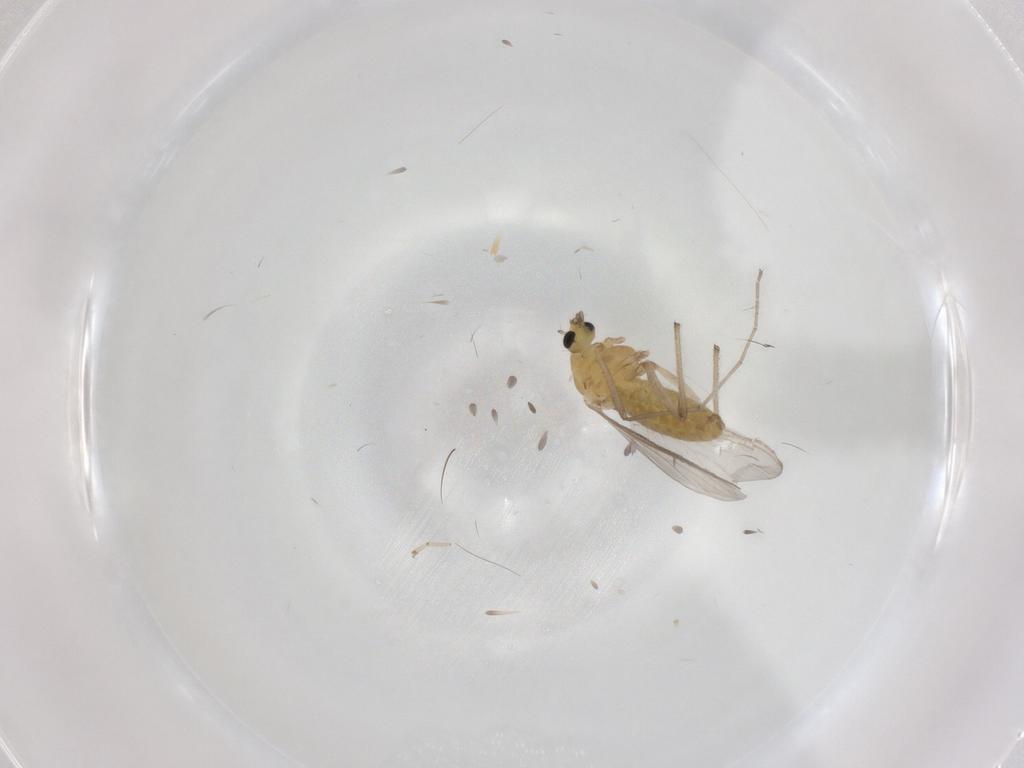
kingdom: Animalia
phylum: Arthropoda
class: Insecta
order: Diptera
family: Chironomidae
